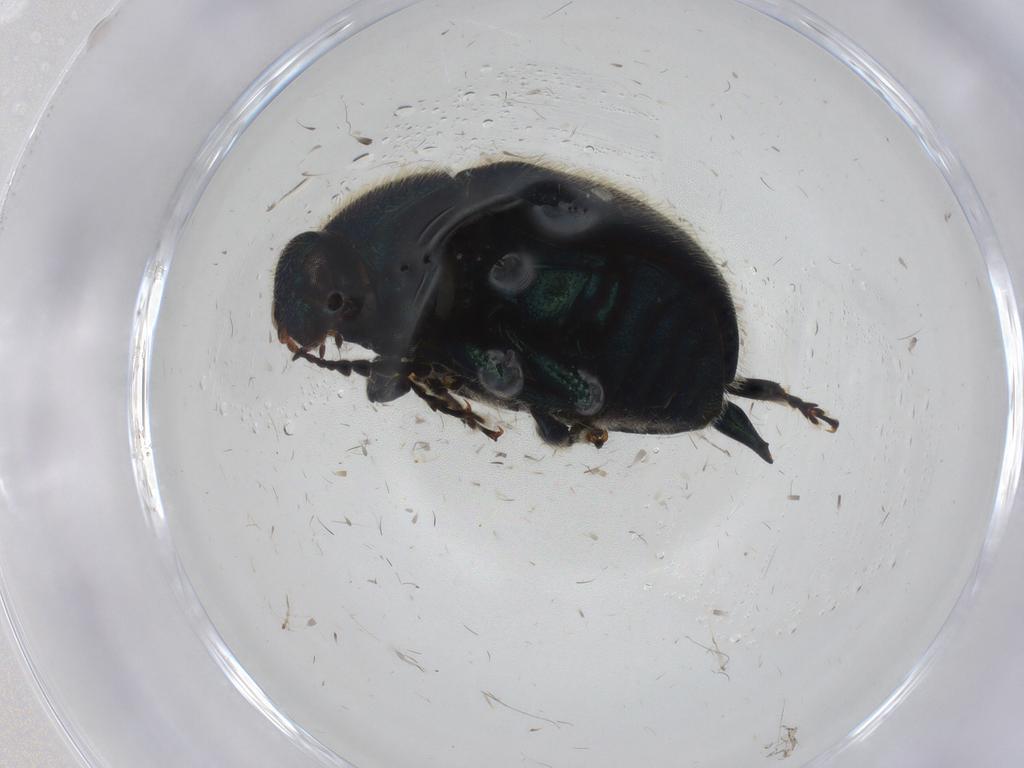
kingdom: Animalia
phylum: Arthropoda
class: Insecta
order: Coleoptera
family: Chrysomelidae
